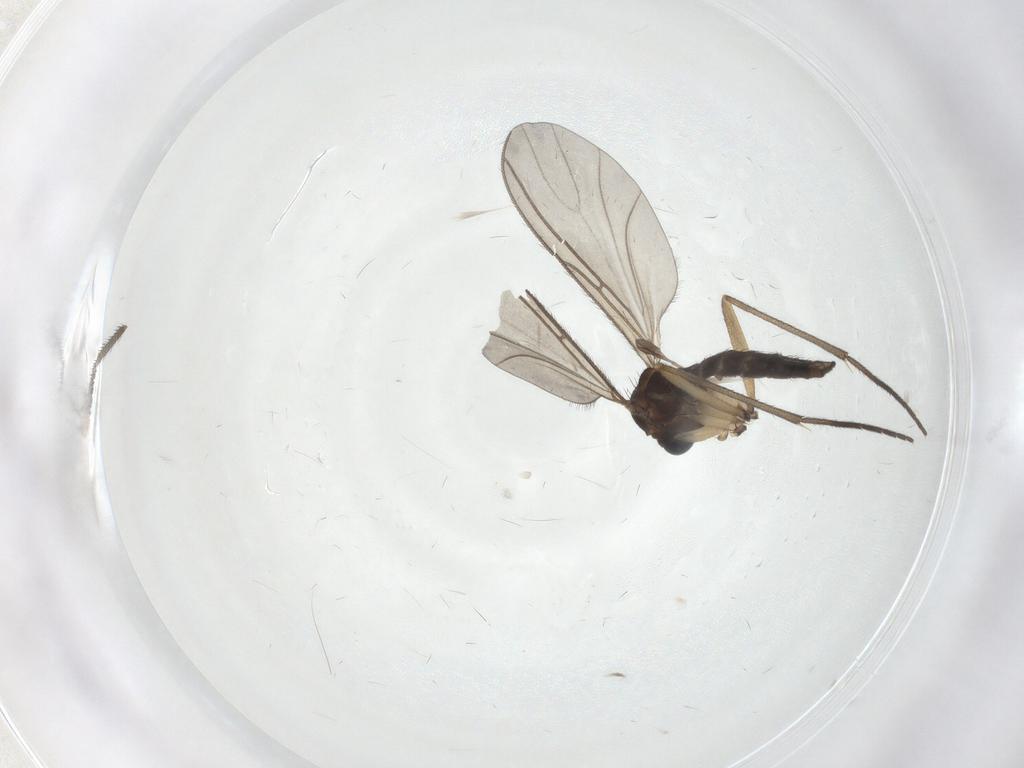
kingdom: Animalia
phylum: Arthropoda
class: Insecta
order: Diptera
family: Sciaridae
